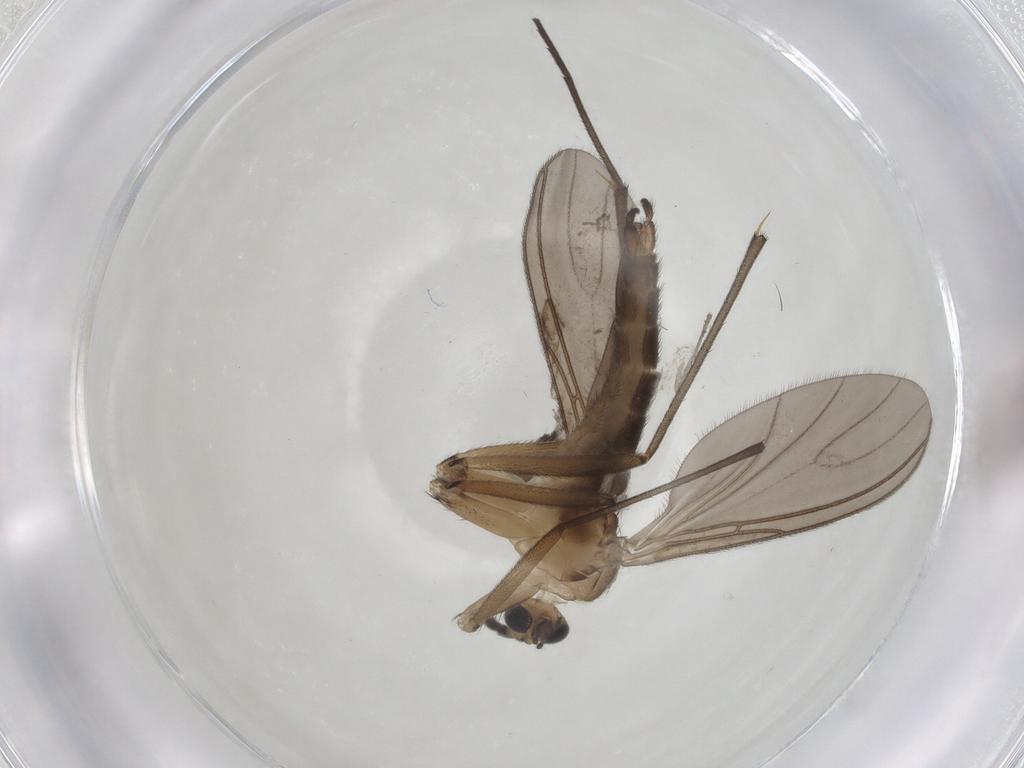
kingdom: Animalia
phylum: Arthropoda
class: Insecta
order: Diptera
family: Chironomidae
